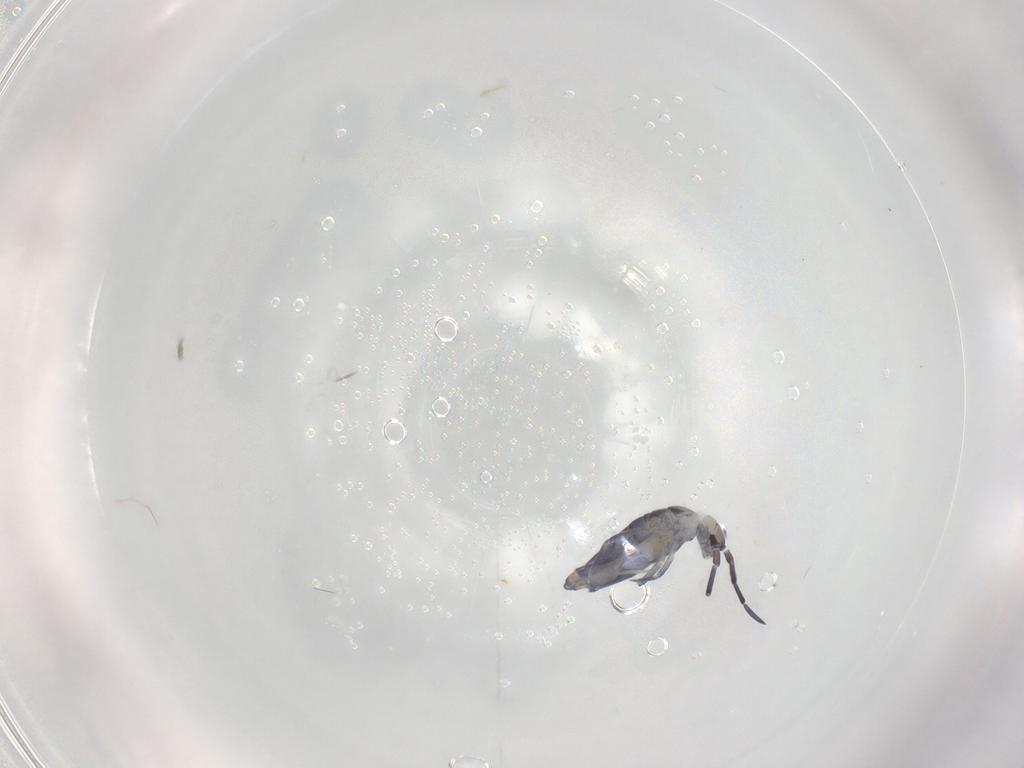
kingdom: Animalia
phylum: Arthropoda
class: Collembola
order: Entomobryomorpha
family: Entomobryidae
